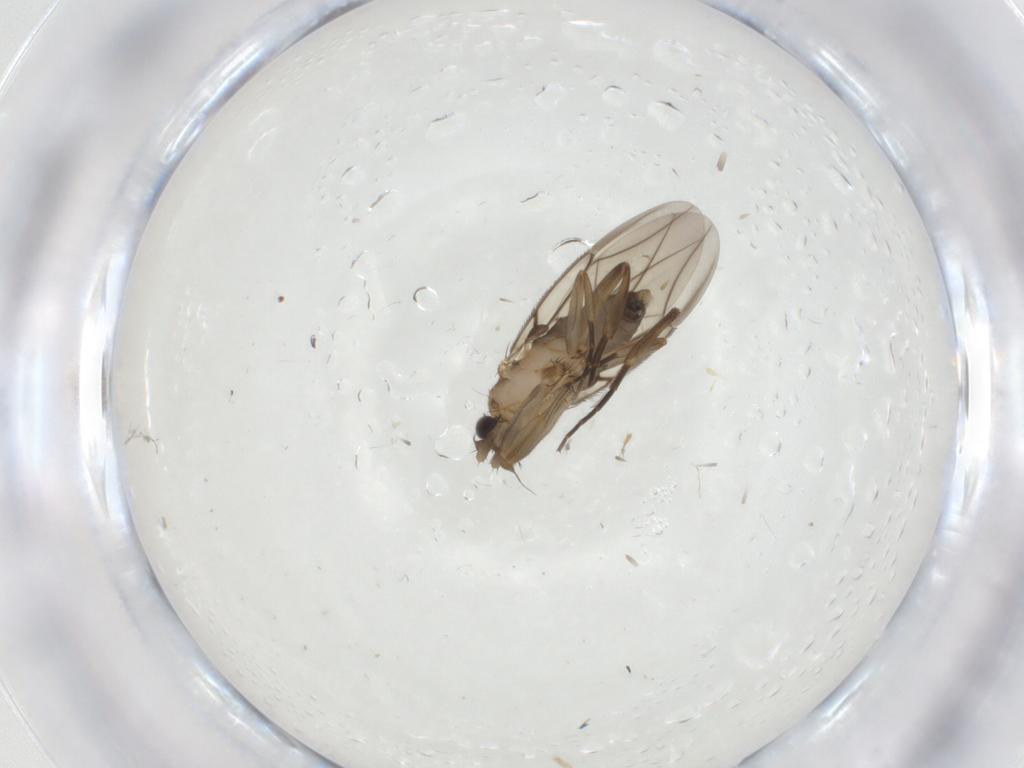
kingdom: Animalia
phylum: Arthropoda
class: Insecta
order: Diptera
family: Phoridae
